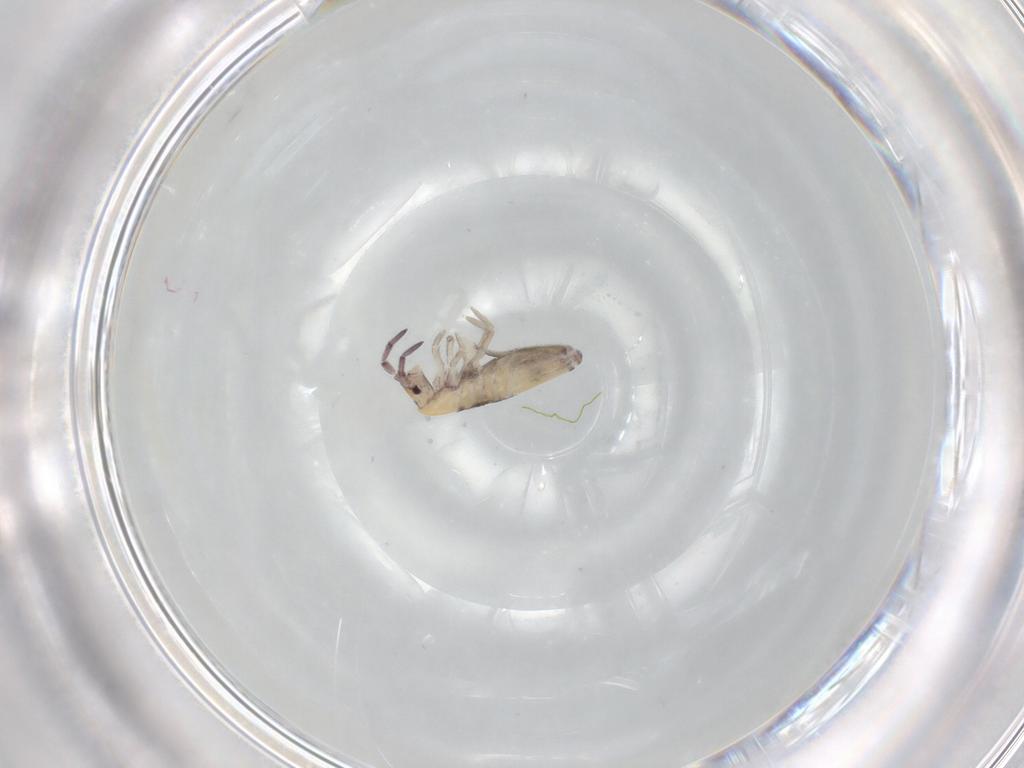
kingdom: Animalia
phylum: Arthropoda
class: Collembola
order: Entomobryomorpha
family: Entomobryidae
